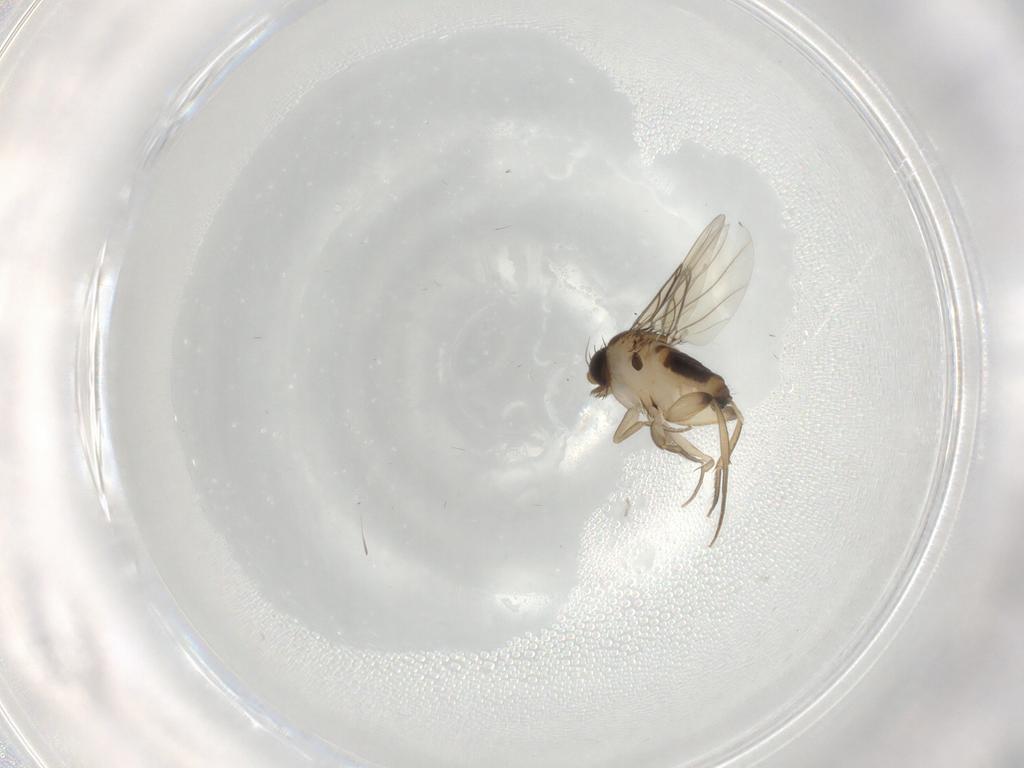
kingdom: Animalia
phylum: Arthropoda
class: Insecta
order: Diptera
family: Phoridae
